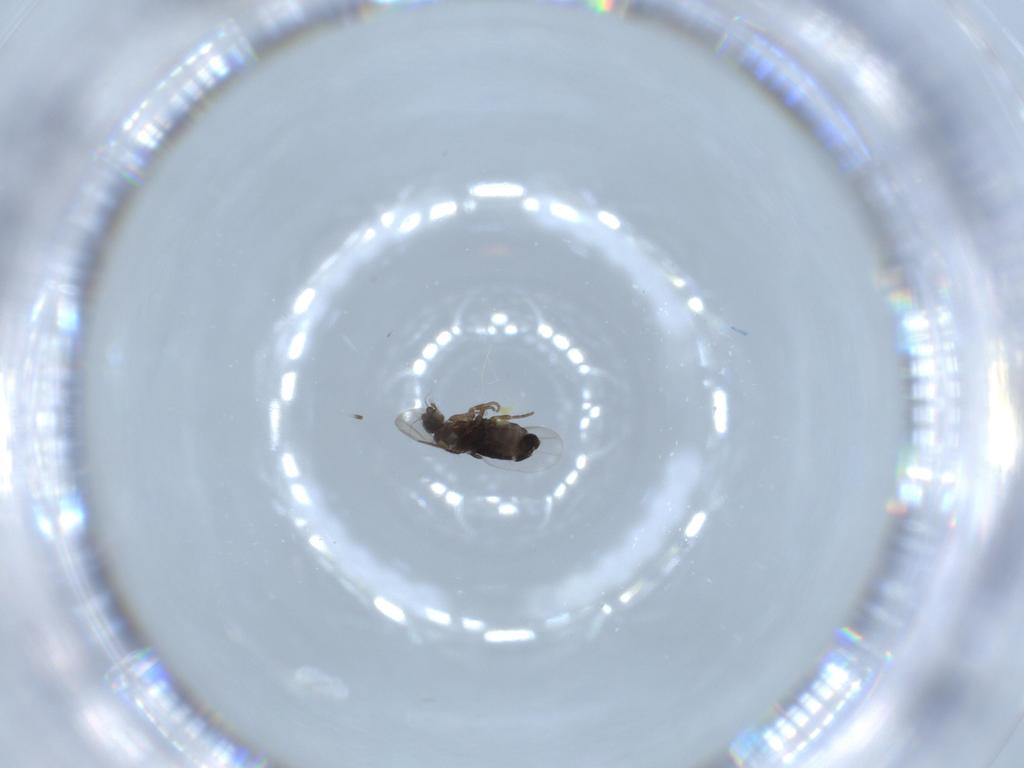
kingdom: Animalia
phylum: Arthropoda
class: Insecta
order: Diptera
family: Phoridae
